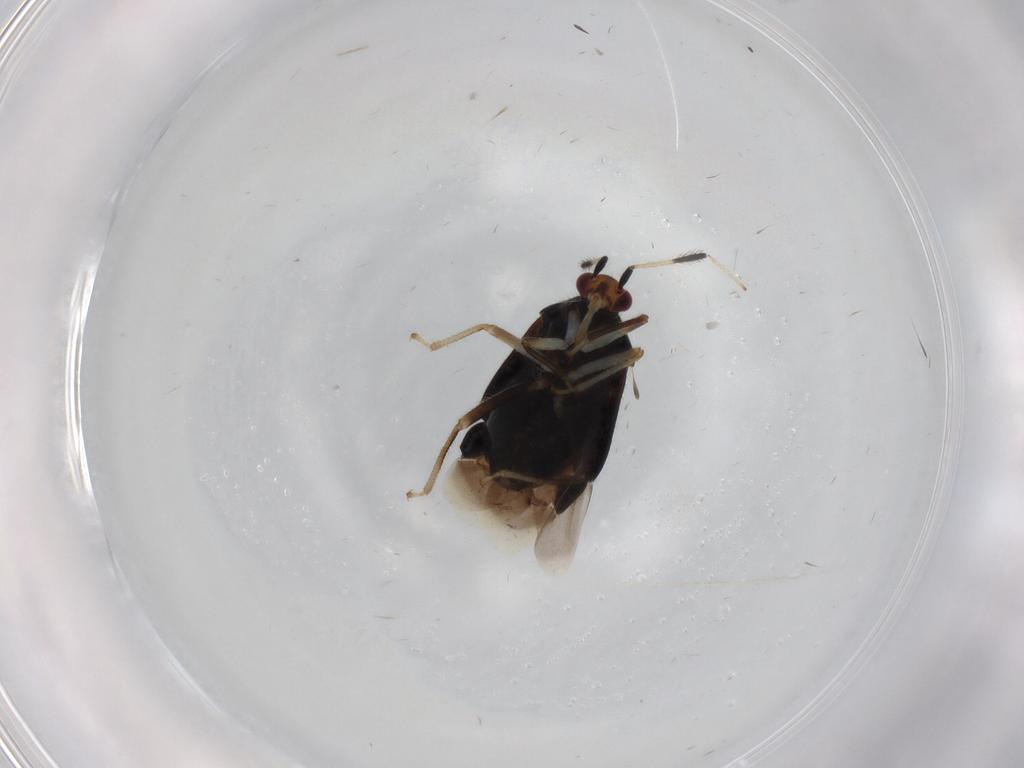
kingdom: Animalia
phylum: Arthropoda
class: Insecta
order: Hemiptera
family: Miridae
